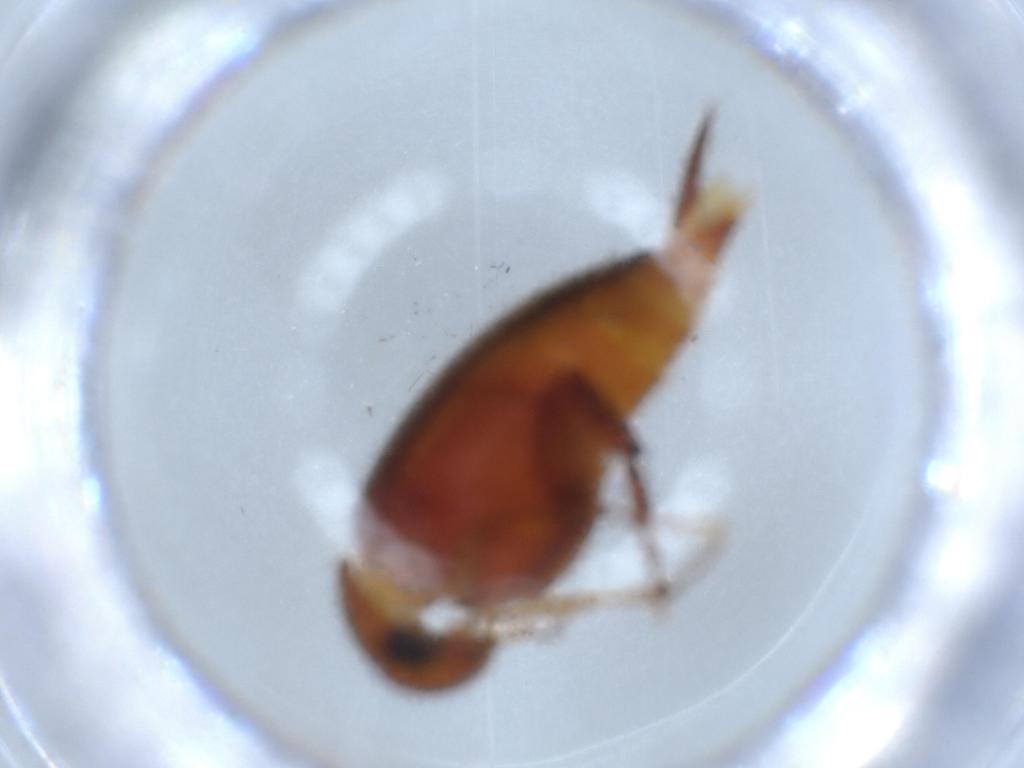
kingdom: Animalia
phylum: Arthropoda
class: Insecta
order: Coleoptera
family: Mordellidae
